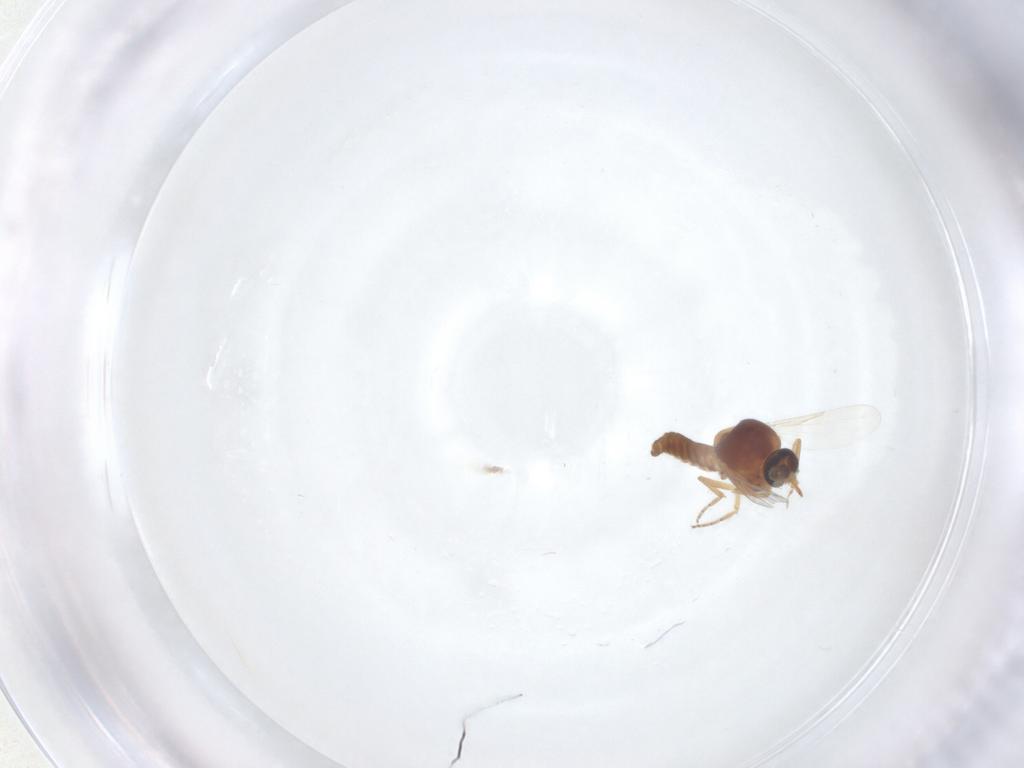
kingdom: Animalia
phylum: Arthropoda
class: Insecta
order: Diptera
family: Ceratopogonidae
